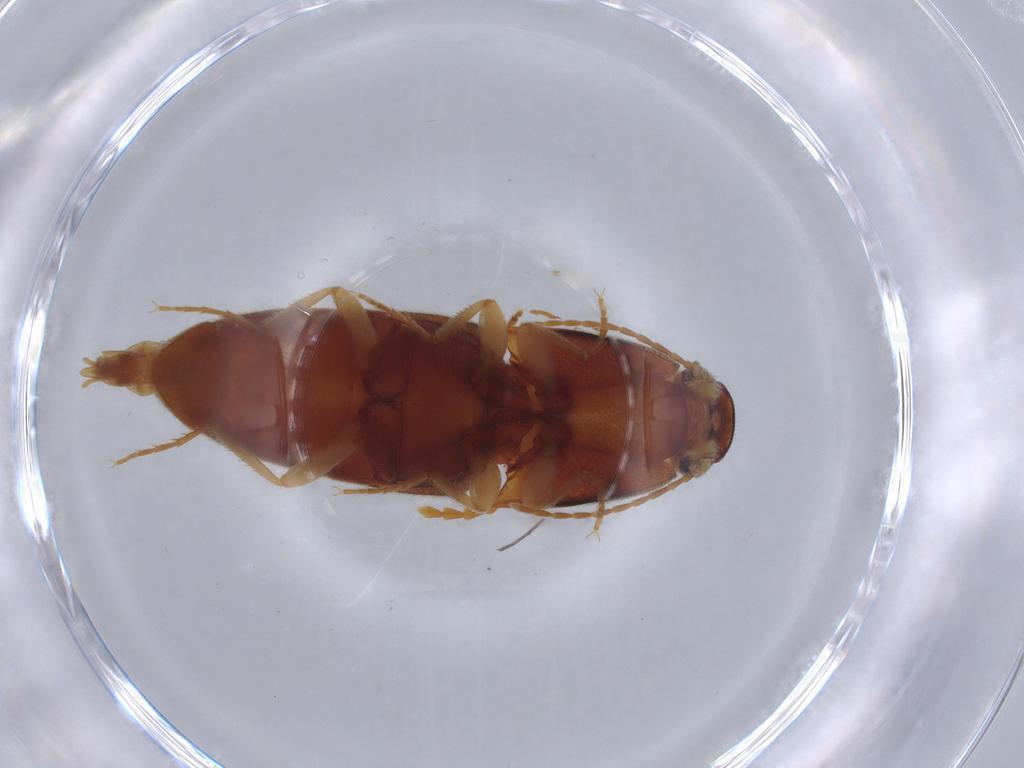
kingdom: Animalia
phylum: Arthropoda
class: Insecta
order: Coleoptera
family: Elateridae
